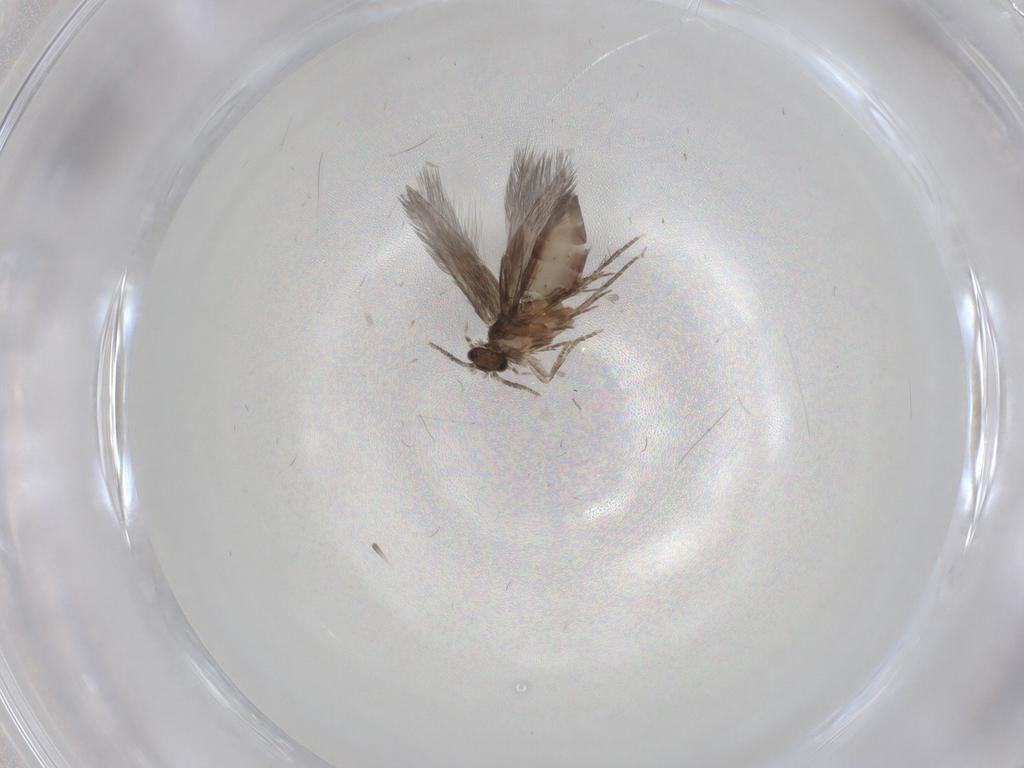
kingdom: Animalia
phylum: Arthropoda
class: Insecta
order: Trichoptera
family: Hydroptilidae
